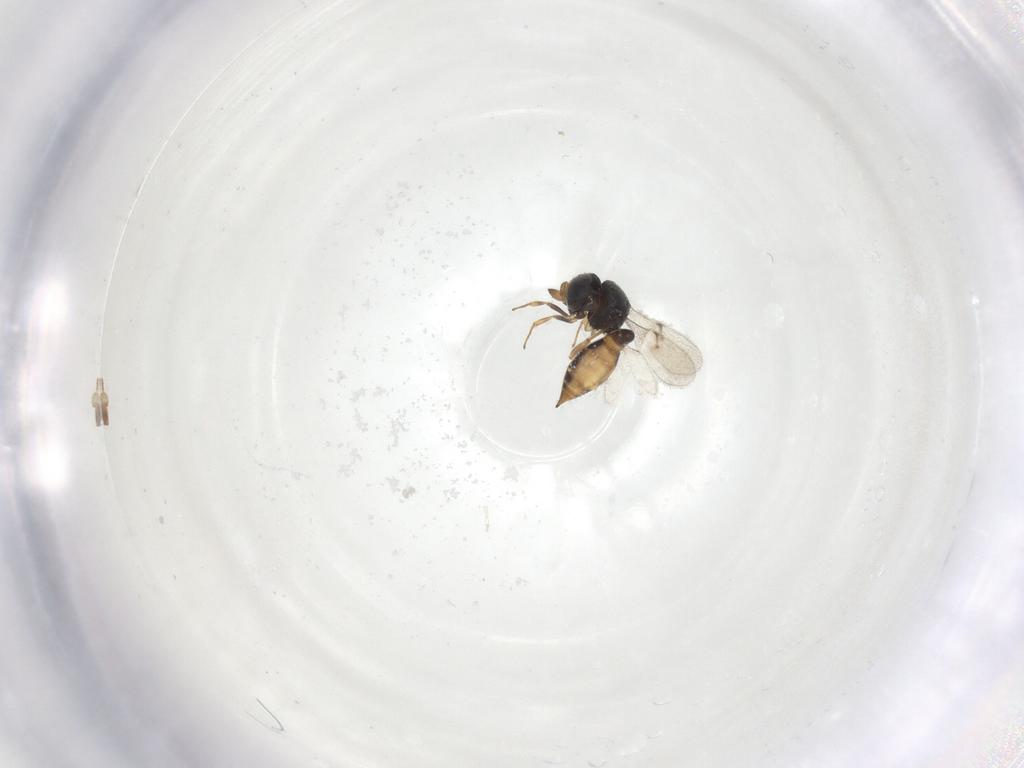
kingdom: Animalia
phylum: Arthropoda
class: Insecta
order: Hymenoptera
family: Scelionidae
